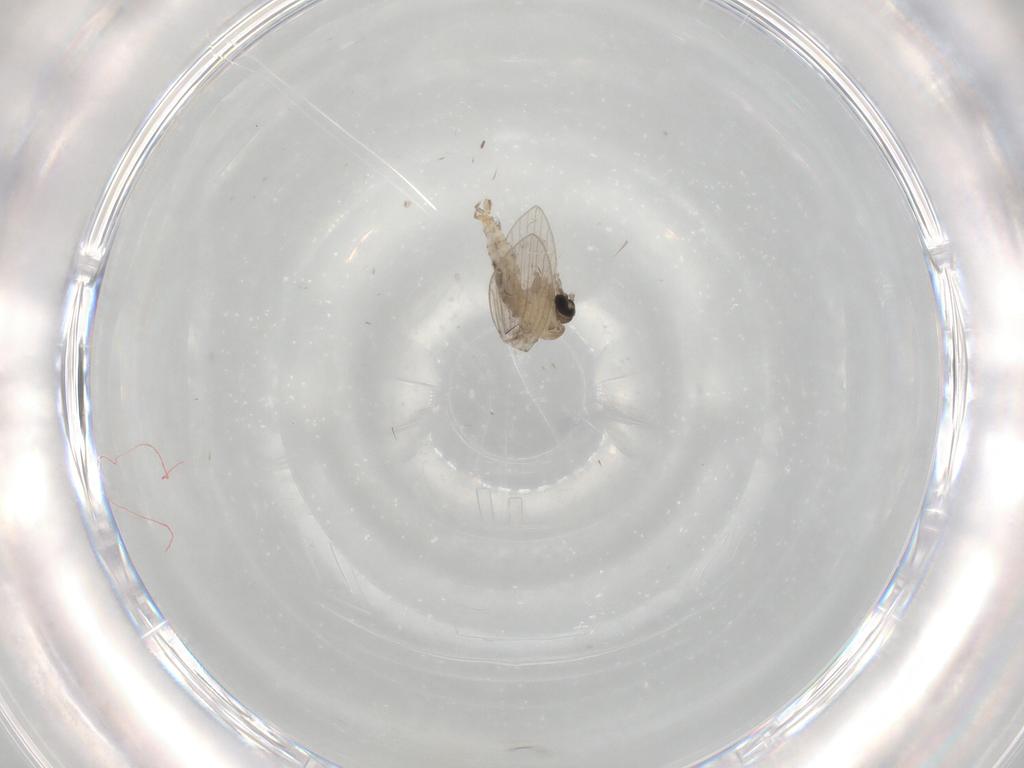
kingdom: Animalia
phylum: Arthropoda
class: Insecta
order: Diptera
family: Psychodidae
